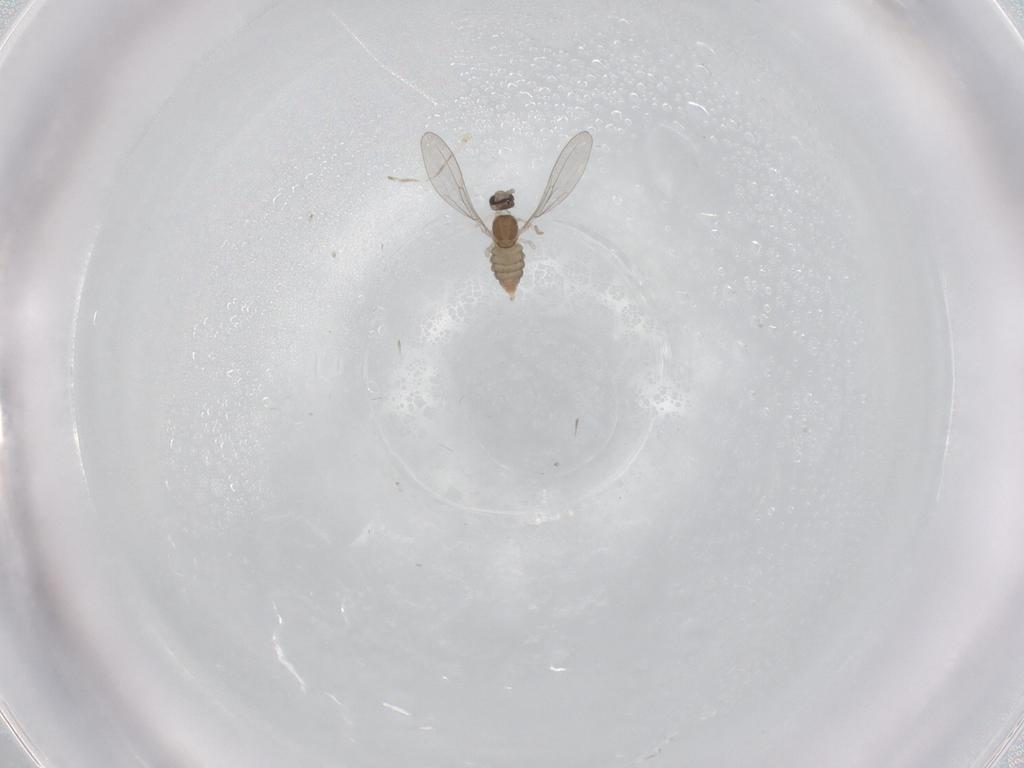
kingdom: Animalia
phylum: Arthropoda
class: Insecta
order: Diptera
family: Cecidomyiidae
